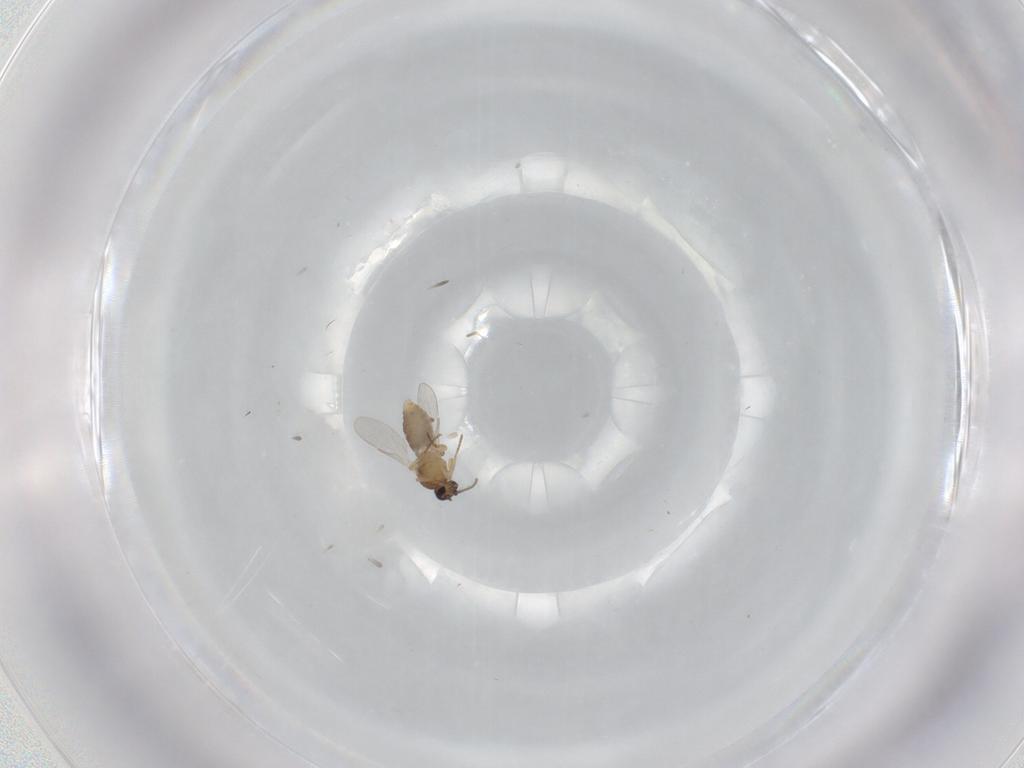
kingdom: Animalia
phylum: Arthropoda
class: Insecta
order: Diptera
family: Ceratopogonidae
